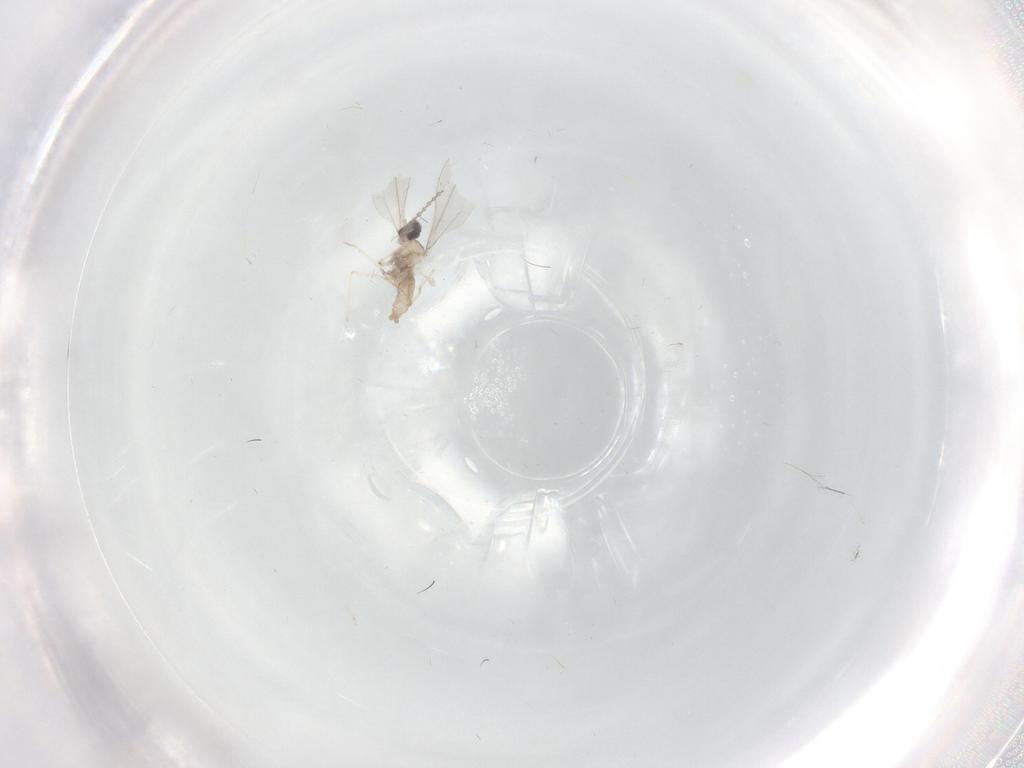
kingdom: Animalia
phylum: Arthropoda
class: Insecta
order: Diptera
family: Cecidomyiidae
